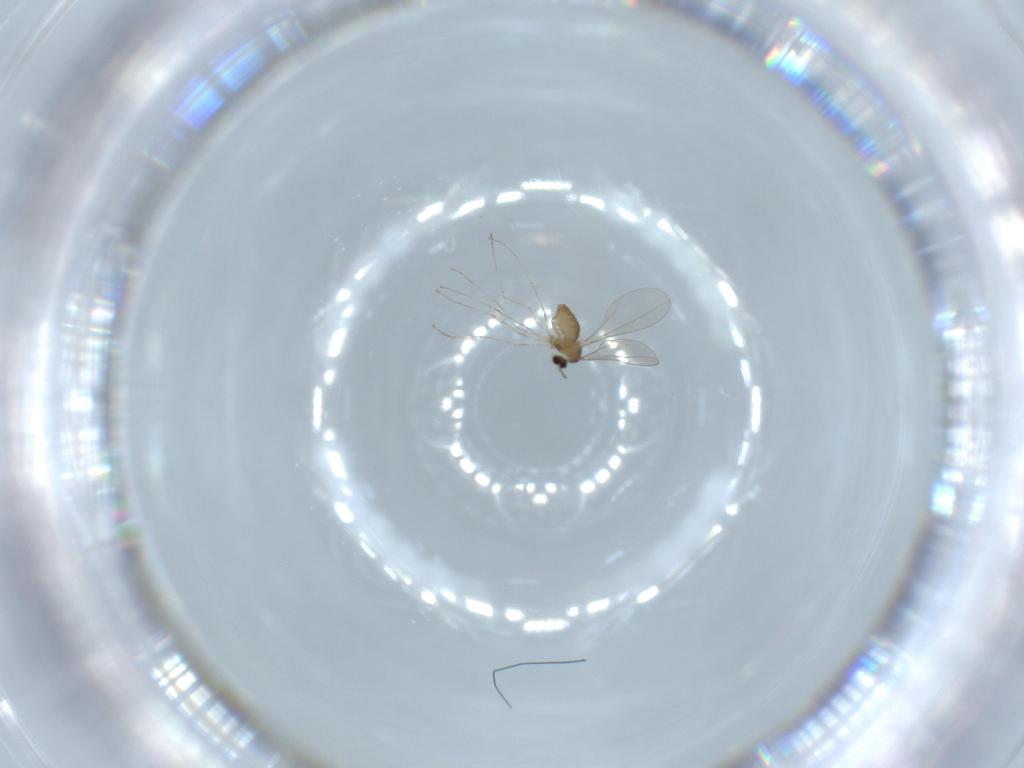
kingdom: Animalia
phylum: Arthropoda
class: Insecta
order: Diptera
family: Cecidomyiidae
